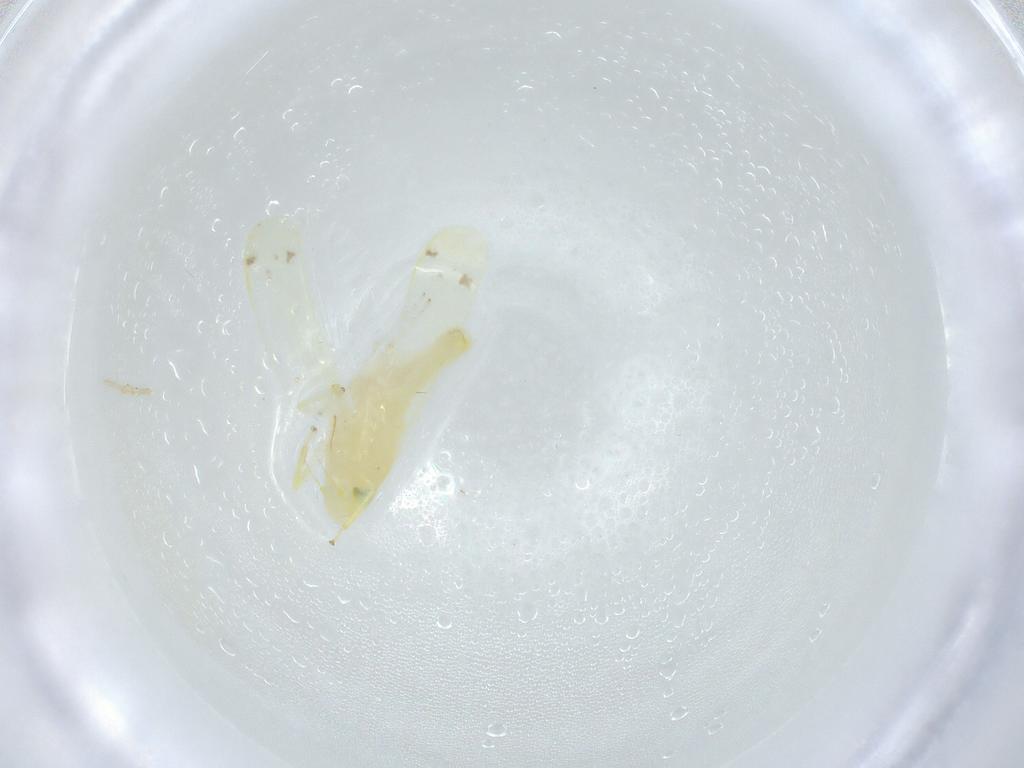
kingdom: Animalia
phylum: Arthropoda
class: Insecta
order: Hemiptera
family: Cicadellidae
